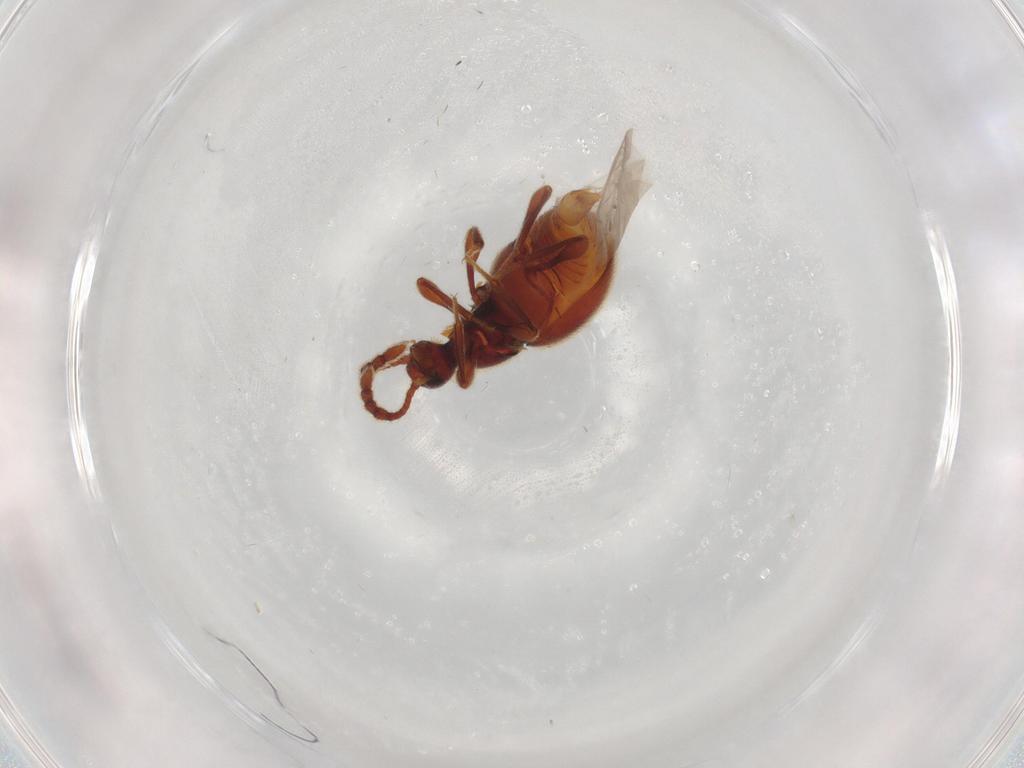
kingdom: Animalia
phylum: Arthropoda
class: Insecta
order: Coleoptera
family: Staphylinidae
